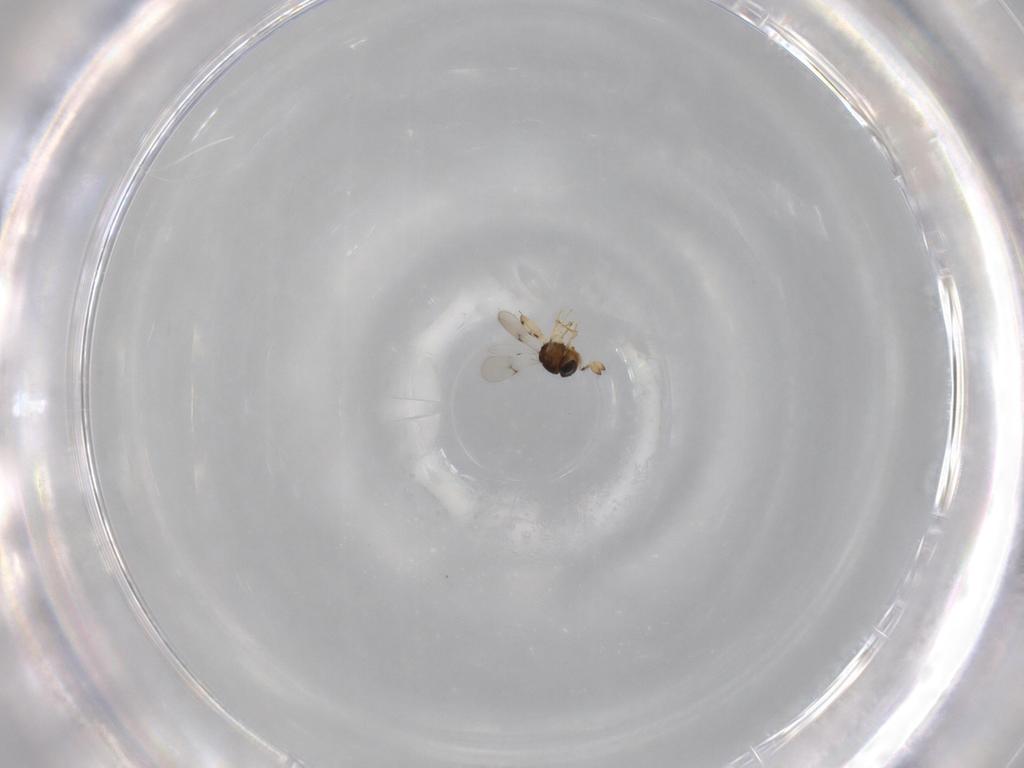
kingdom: Animalia
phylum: Arthropoda
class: Insecta
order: Hymenoptera
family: Scelionidae
